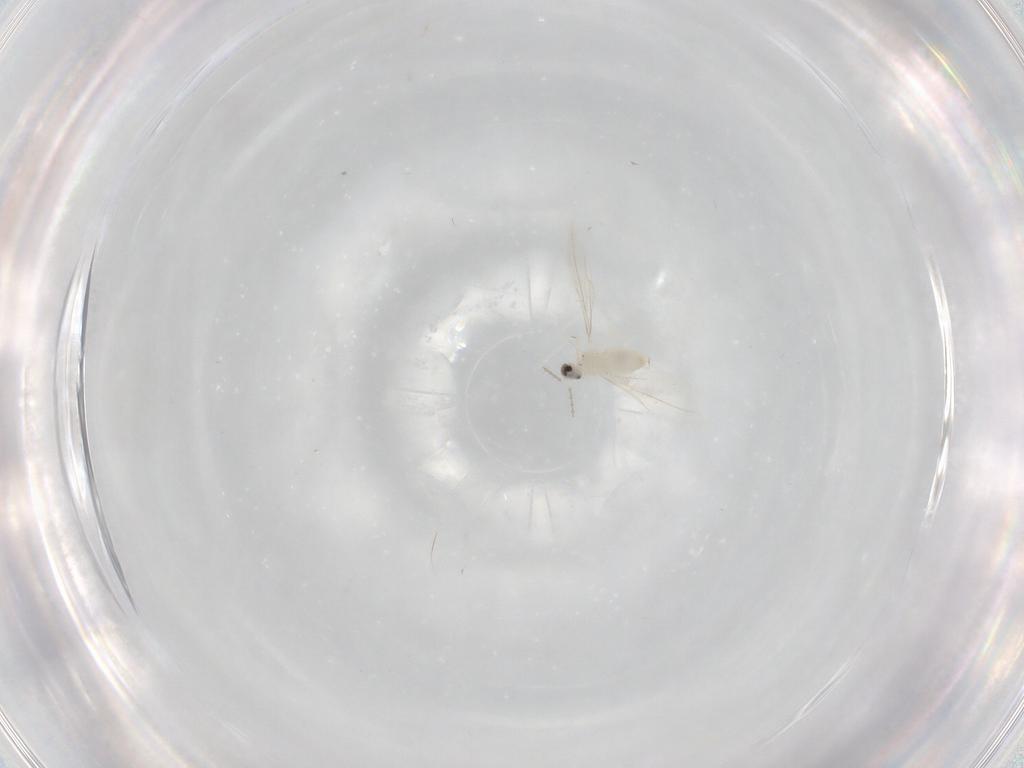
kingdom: Animalia
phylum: Arthropoda
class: Insecta
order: Diptera
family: Cecidomyiidae
